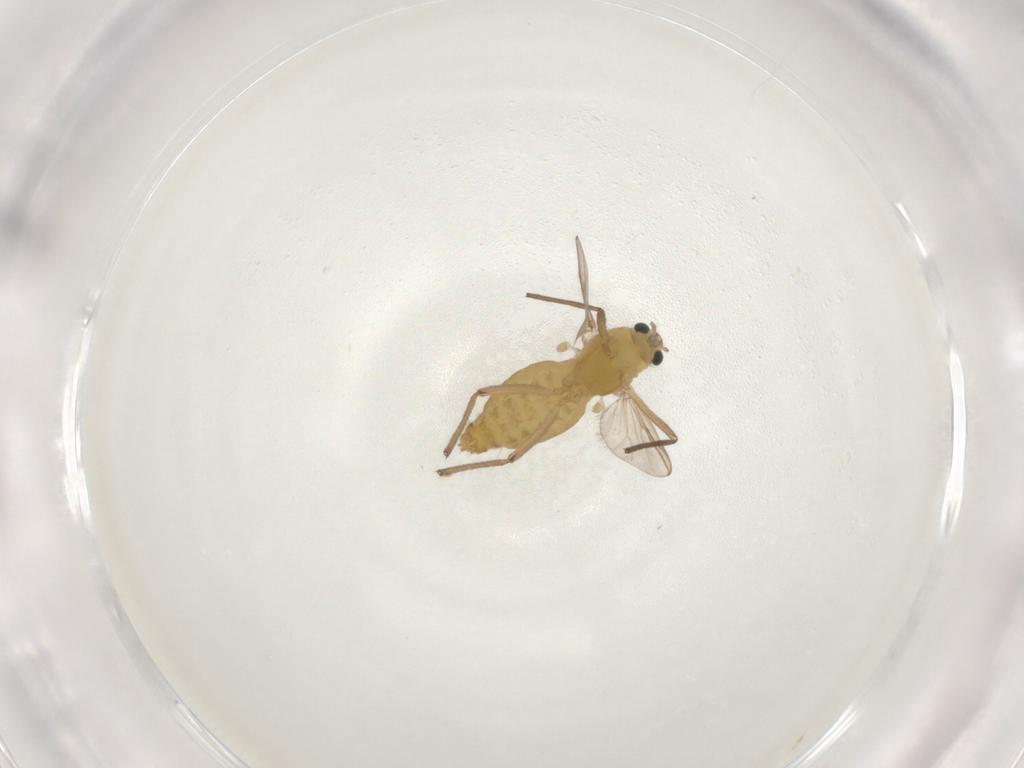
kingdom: Animalia
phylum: Arthropoda
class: Insecta
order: Diptera
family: Chironomidae
